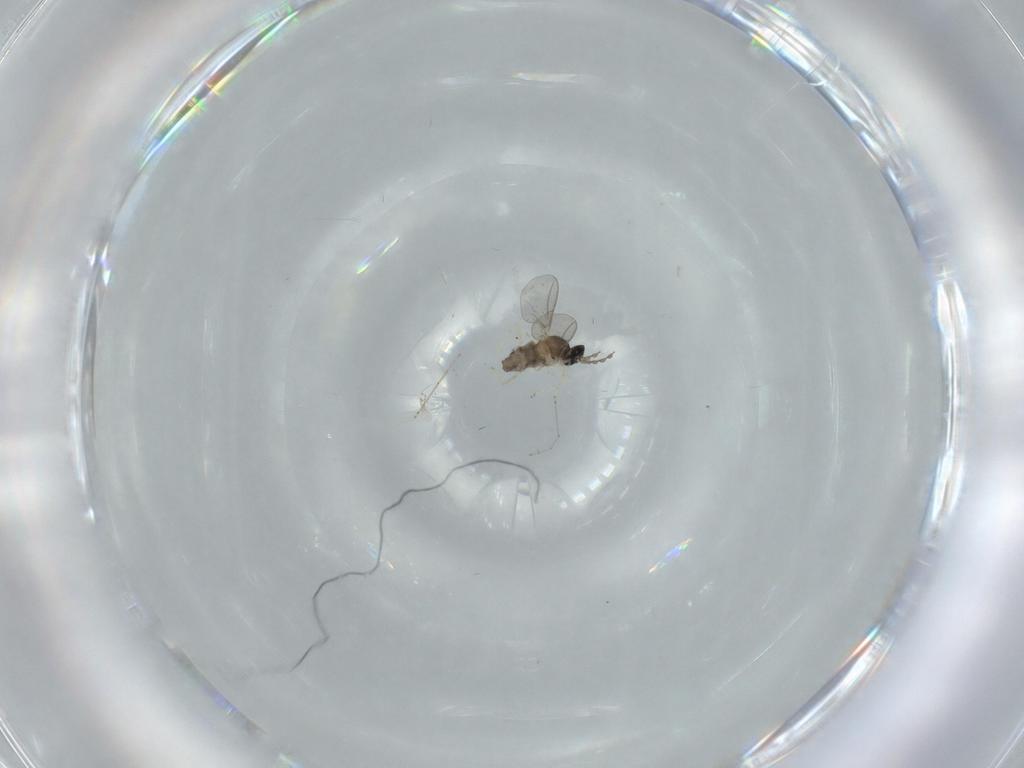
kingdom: Animalia
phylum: Arthropoda
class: Insecta
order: Diptera
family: Cecidomyiidae
